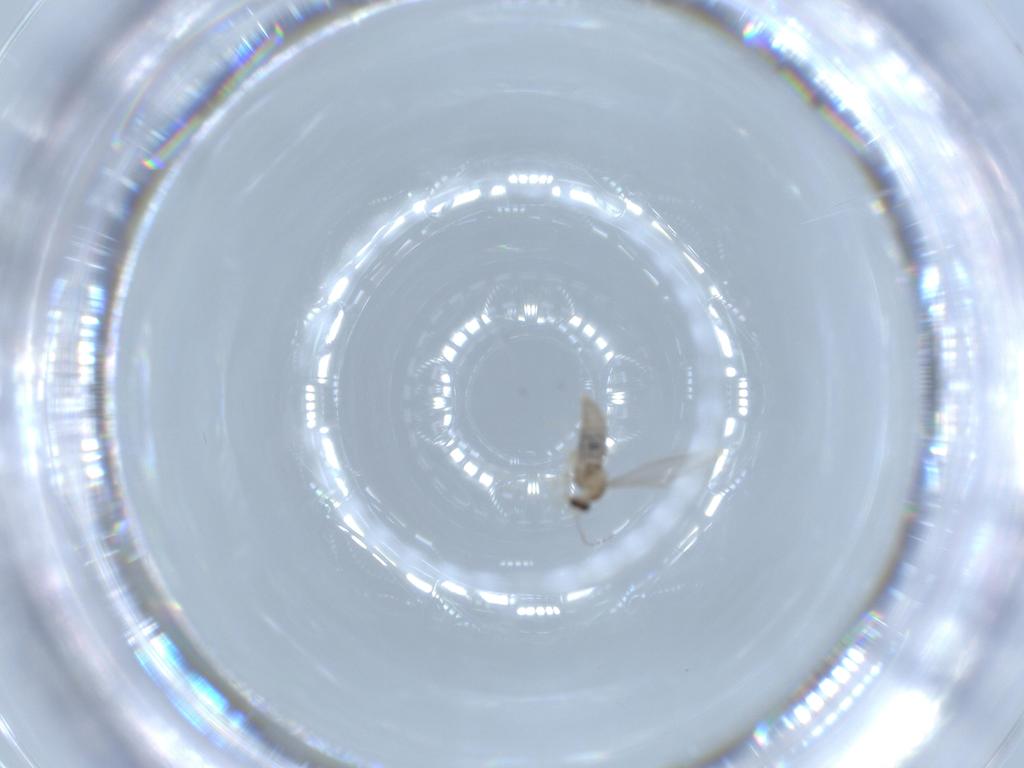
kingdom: Animalia
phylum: Arthropoda
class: Insecta
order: Diptera
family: Cecidomyiidae
